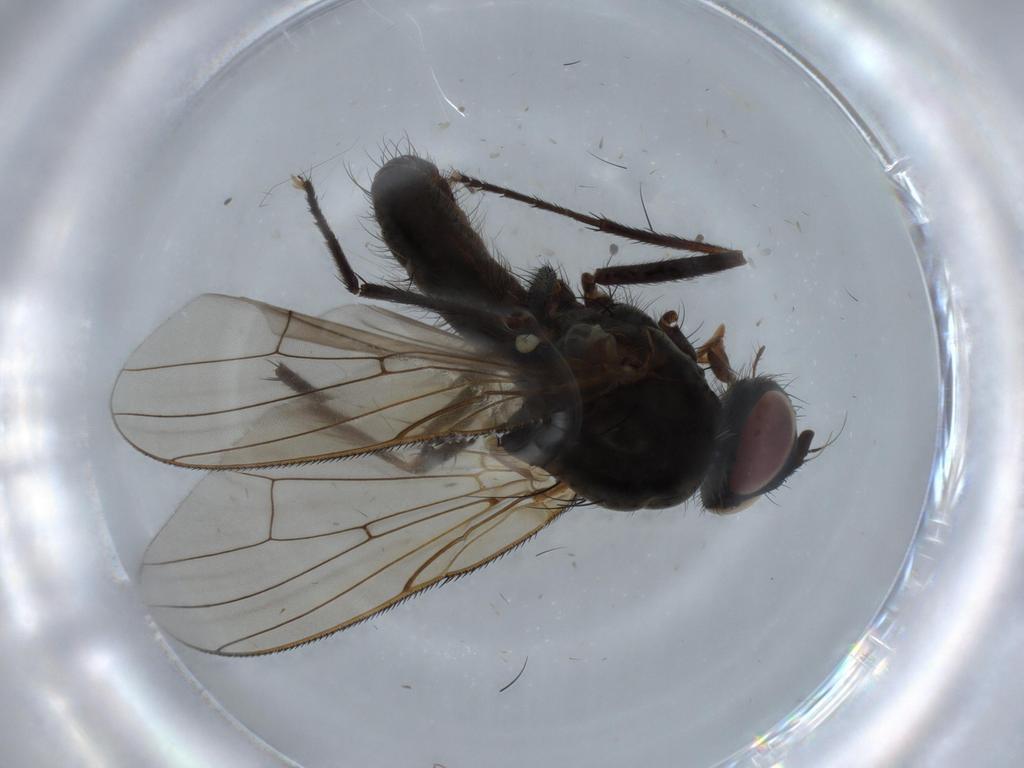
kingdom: Animalia
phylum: Arthropoda
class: Insecta
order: Diptera
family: Anthomyiidae
